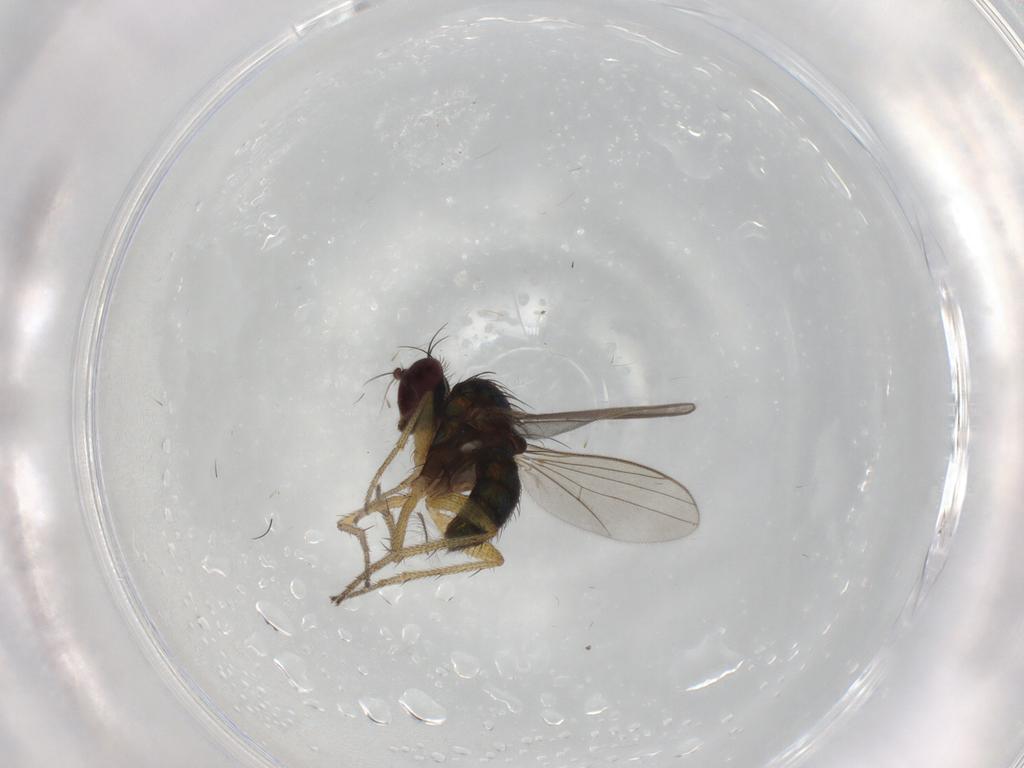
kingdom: Animalia
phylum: Arthropoda
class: Insecta
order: Diptera
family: Dolichopodidae
